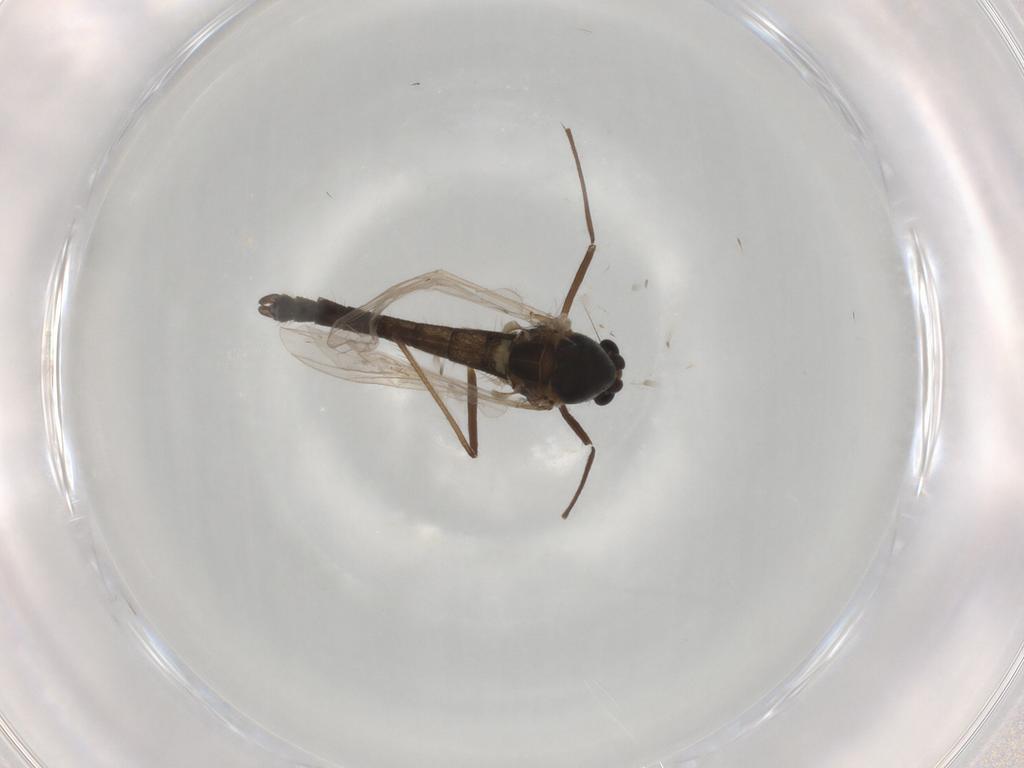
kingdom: Animalia
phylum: Arthropoda
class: Insecta
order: Diptera
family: Chironomidae
